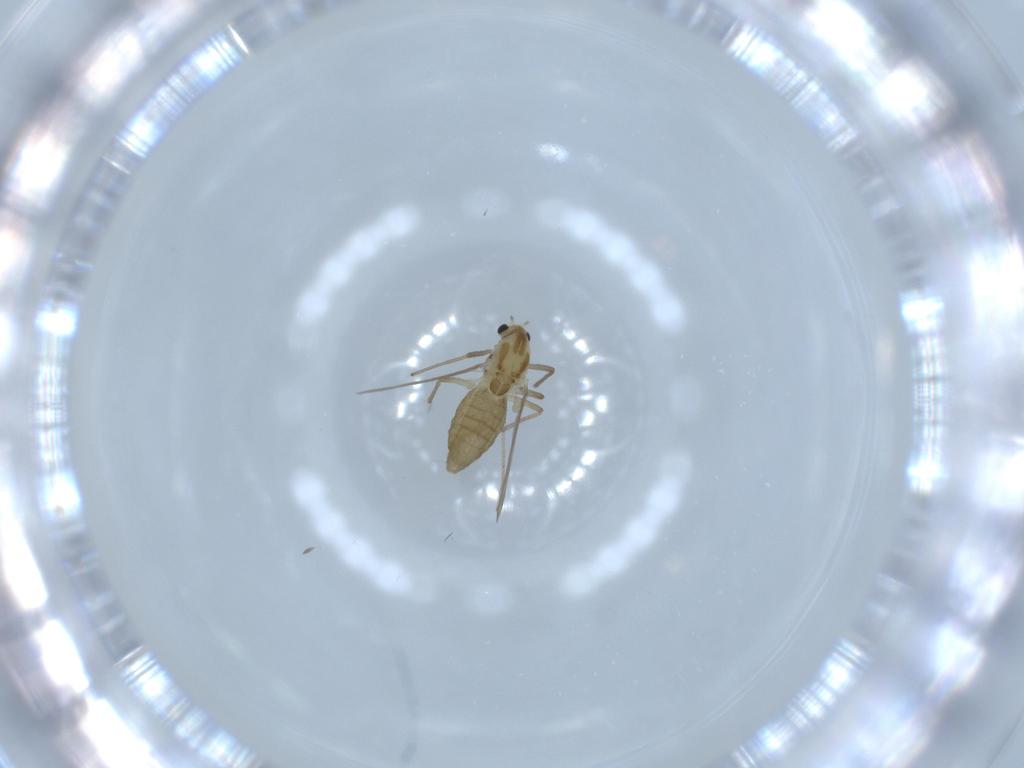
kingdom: Animalia
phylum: Arthropoda
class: Insecta
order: Diptera
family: Chironomidae
